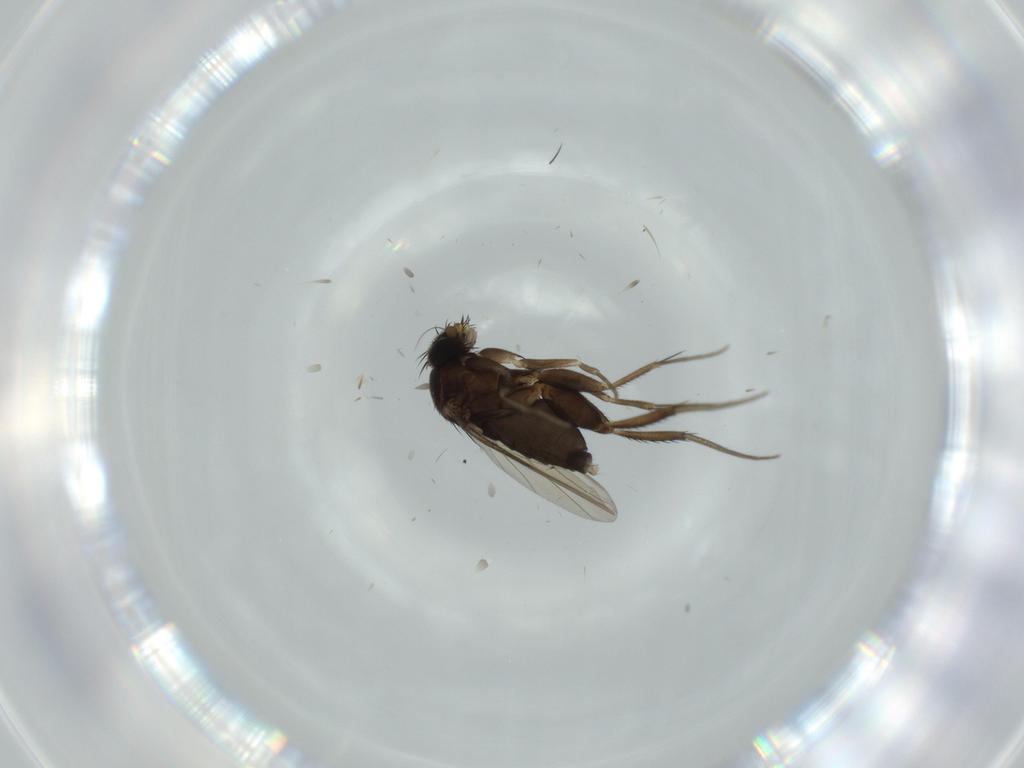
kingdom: Animalia
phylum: Arthropoda
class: Insecta
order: Diptera
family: Phoridae
